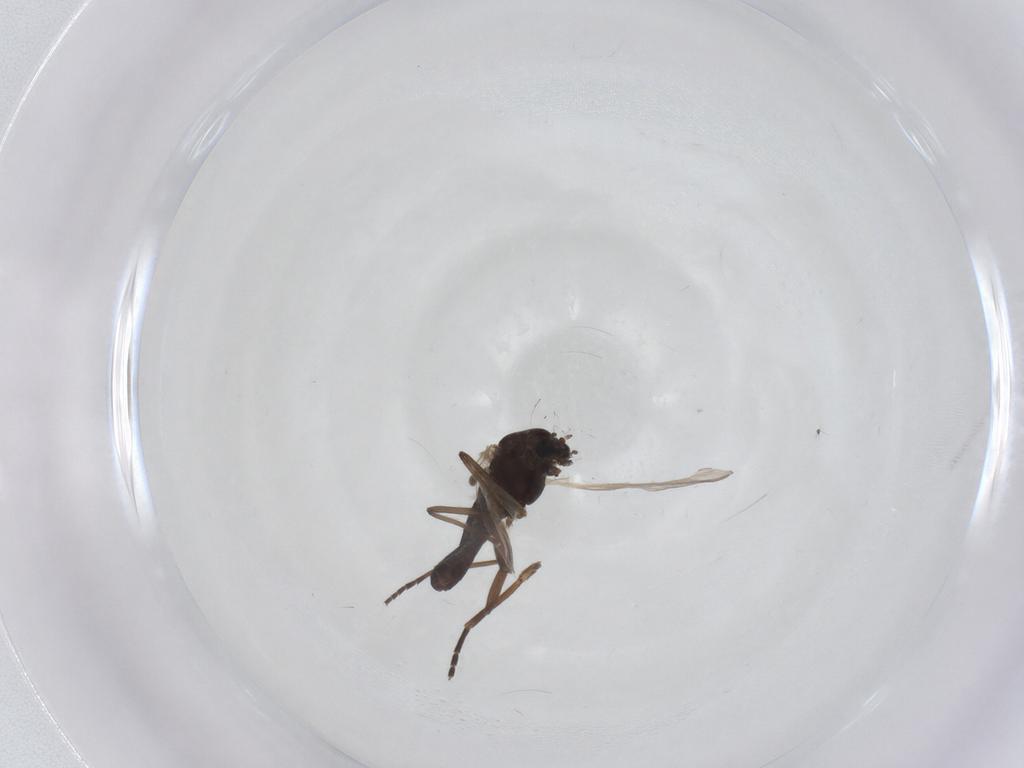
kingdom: Animalia
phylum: Arthropoda
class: Insecta
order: Diptera
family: Sciaridae
